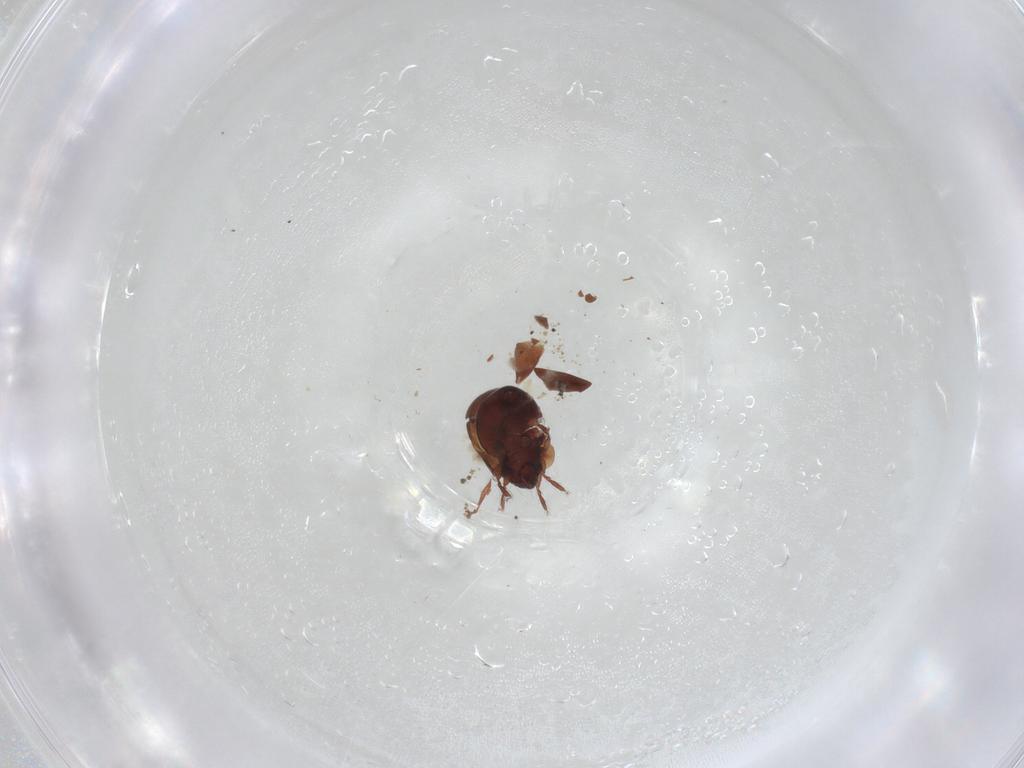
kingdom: Animalia
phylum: Arthropoda
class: Arachnida
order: Sarcoptiformes
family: Humerobatidae
